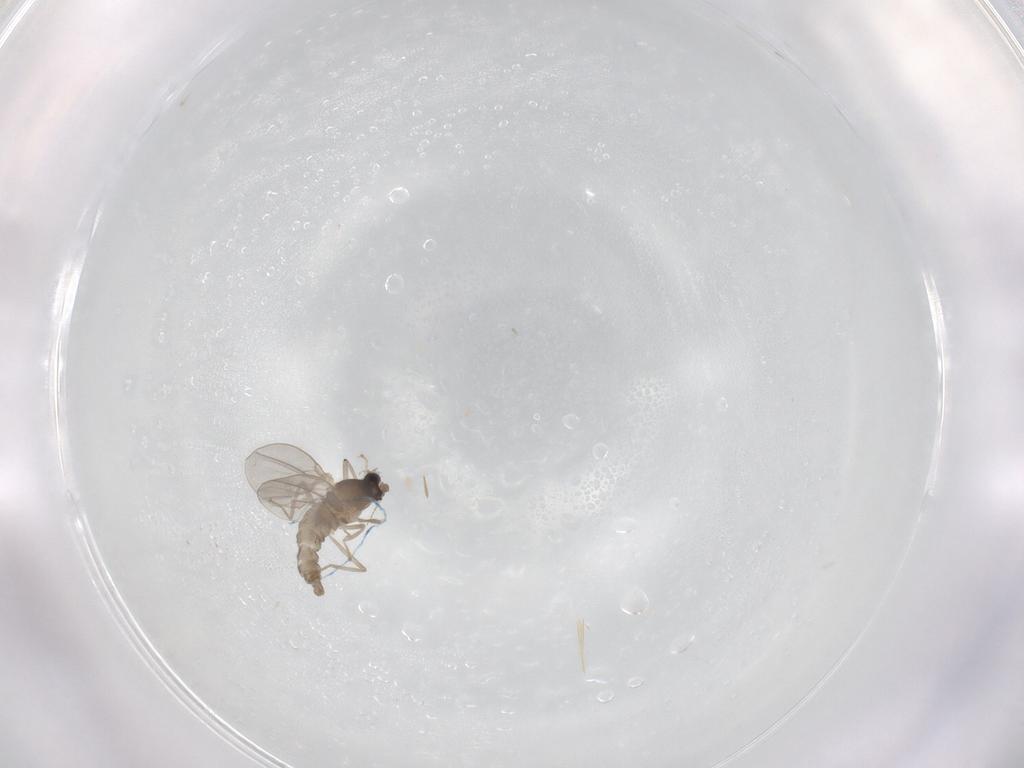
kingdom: Animalia
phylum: Arthropoda
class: Insecta
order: Diptera
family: Cecidomyiidae
